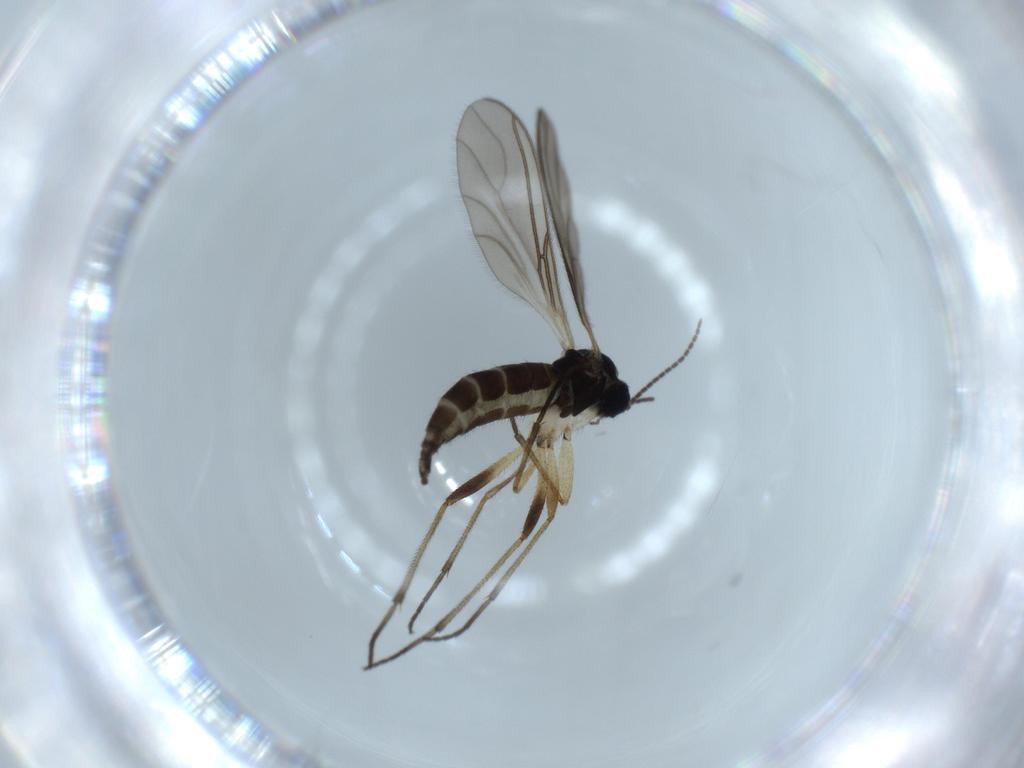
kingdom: Animalia
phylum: Arthropoda
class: Insecta
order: Diptera
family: Sciaridae
